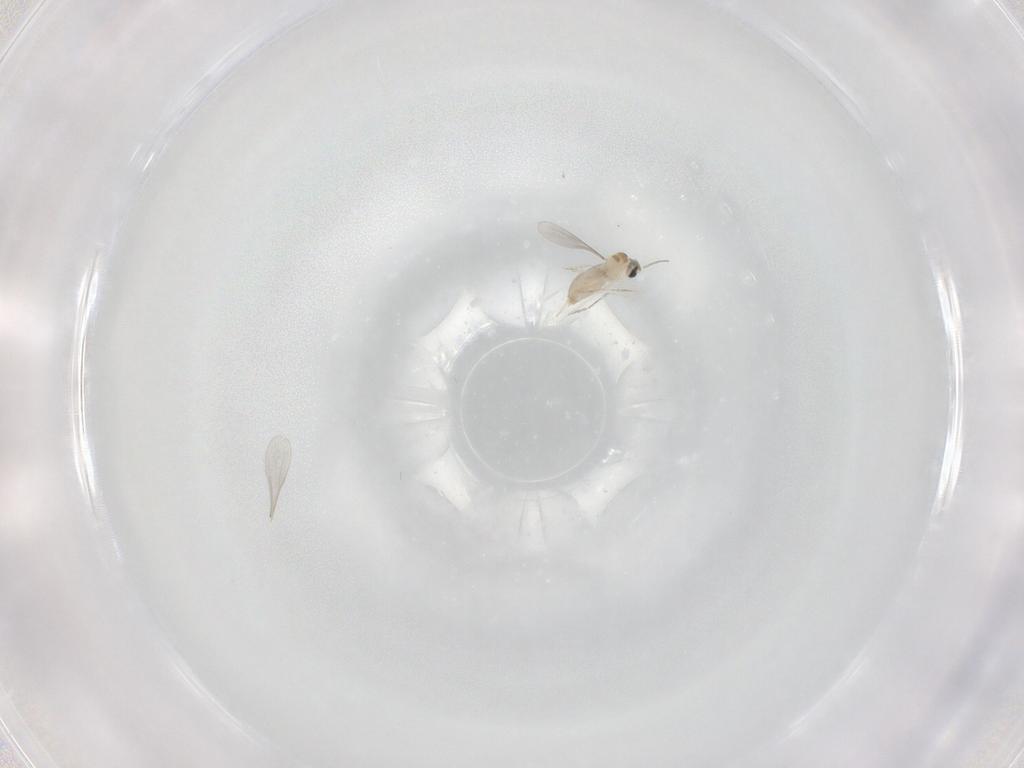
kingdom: Animalia
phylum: Arthropoda
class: Insecta
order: Diptera
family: Cecidomyiidae
